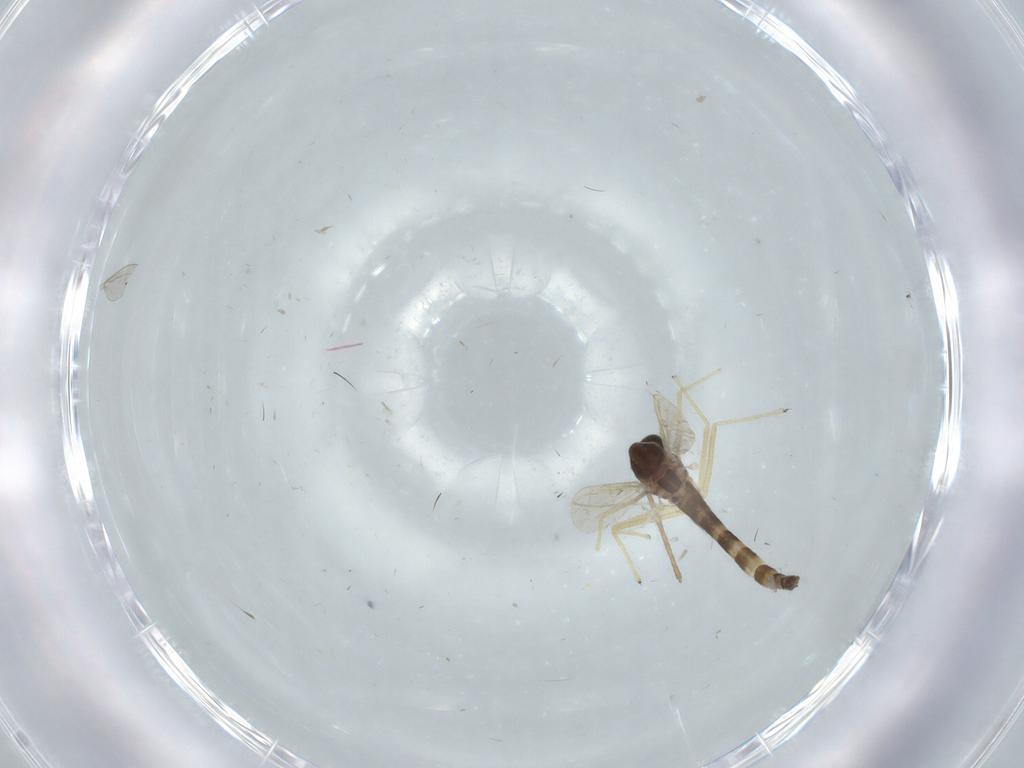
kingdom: Animalia
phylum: Arthropoda
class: Insecta
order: Diptera
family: Chironomidae
